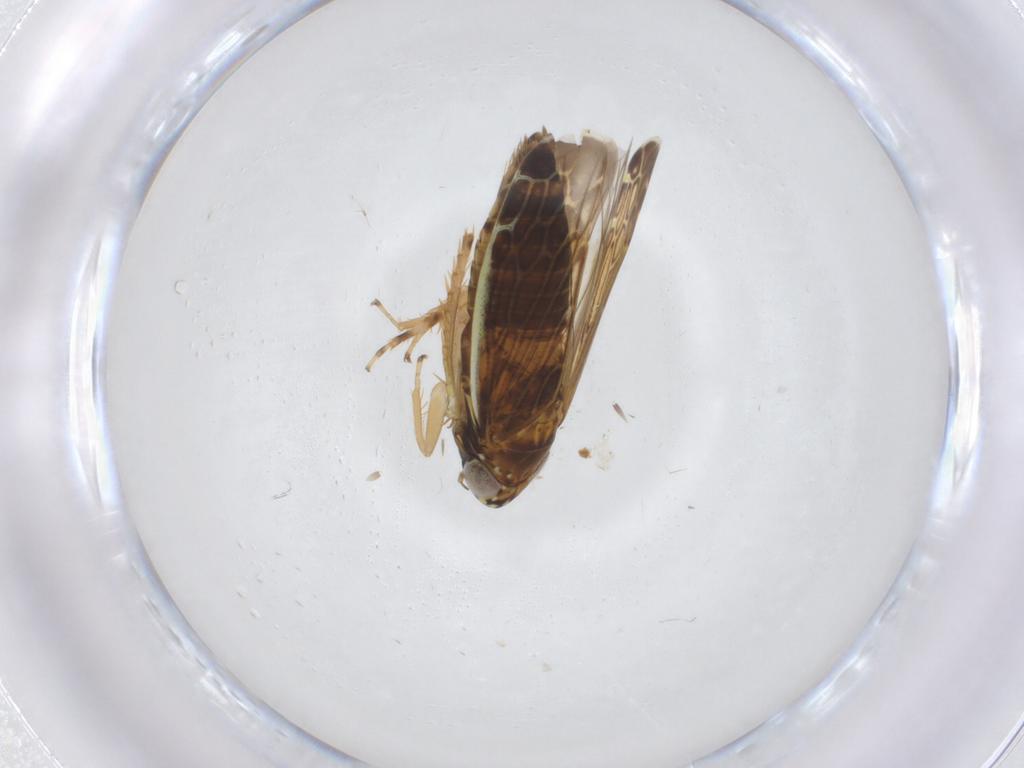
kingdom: Animalia
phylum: Arthropoda
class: Insecta
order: Hemiptera
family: Cicadellidae
